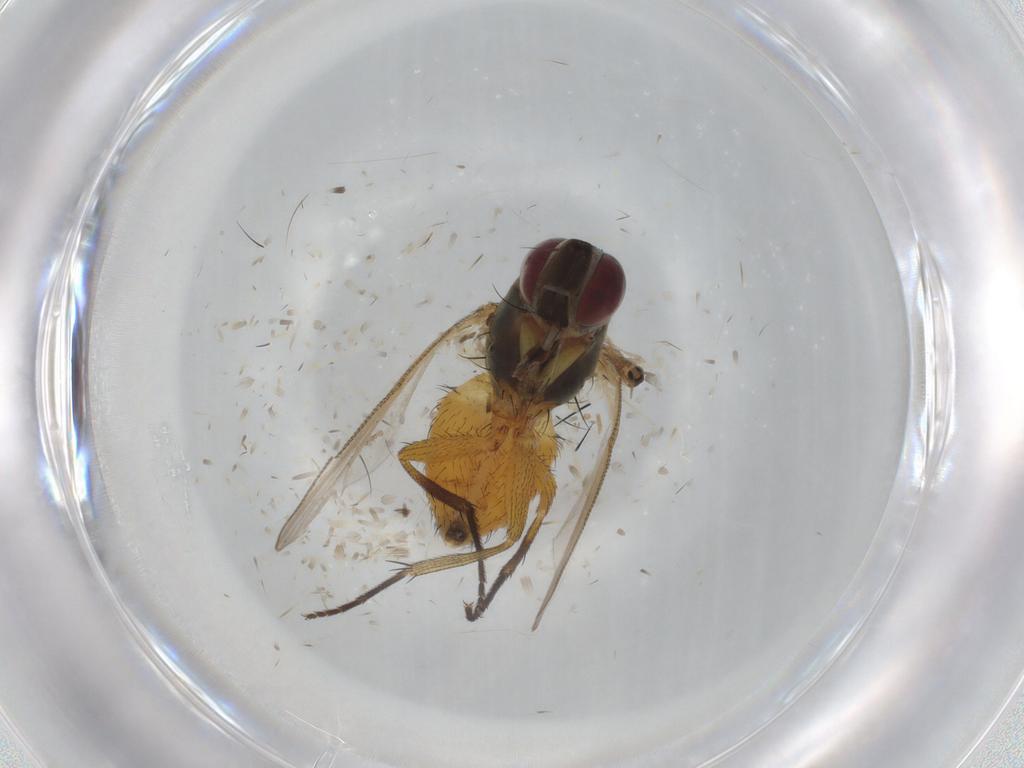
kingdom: Animalia
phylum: Arthropoda
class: Insecta
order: Diptera
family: Muscidae
